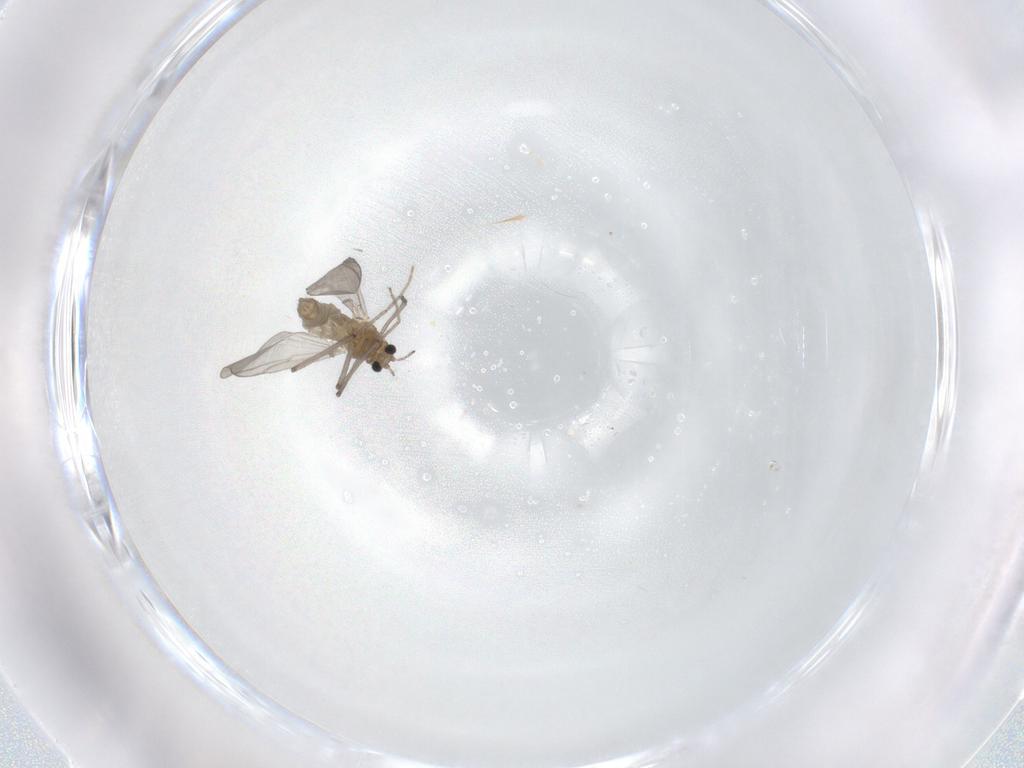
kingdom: Animalia
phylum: Arthropoda
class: Insecta
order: Diptera
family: Chironomidae
